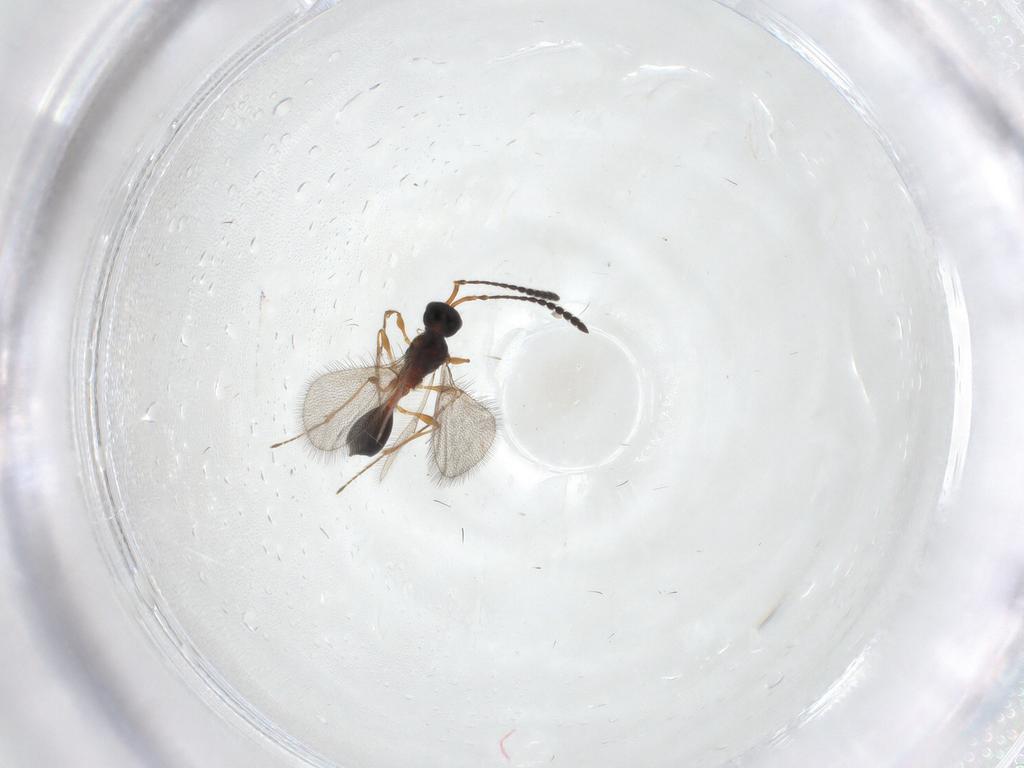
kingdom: Animalia
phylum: Arthropoda
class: Insecta
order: Hymenoptera
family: Diapriidae
